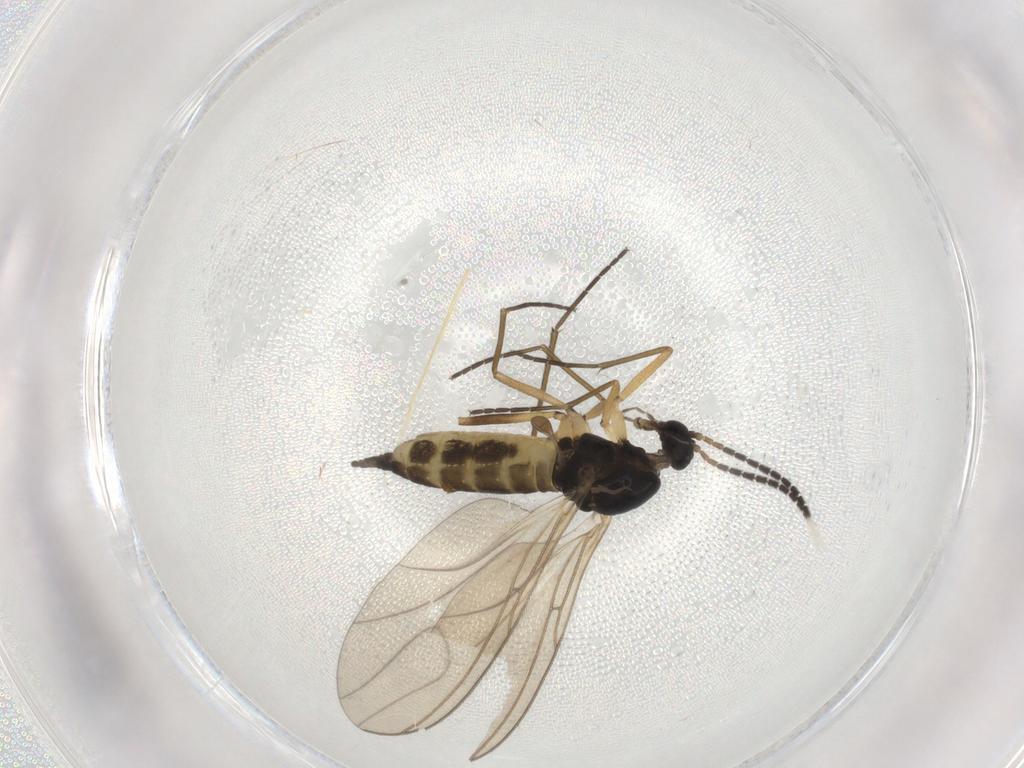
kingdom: Animalia
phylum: Arthropoda
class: Insecta
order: Diptera
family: Sciaridae
